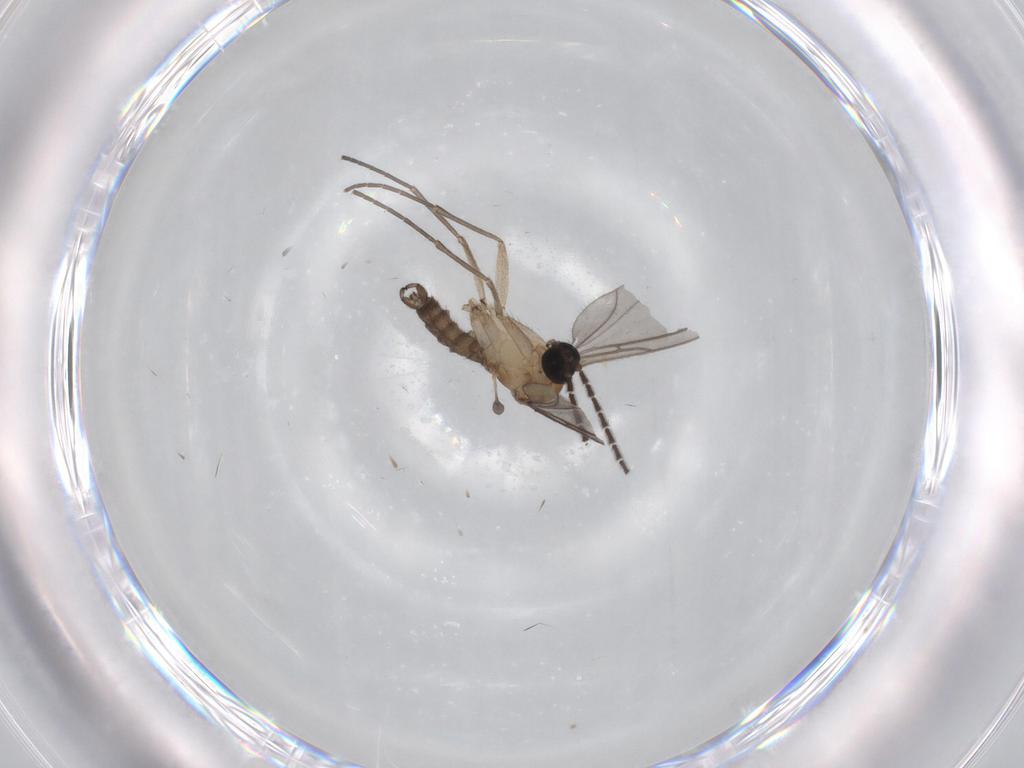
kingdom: Animalia
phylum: Arthropoda
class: Insecta
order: Diptera
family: Sciaridae
